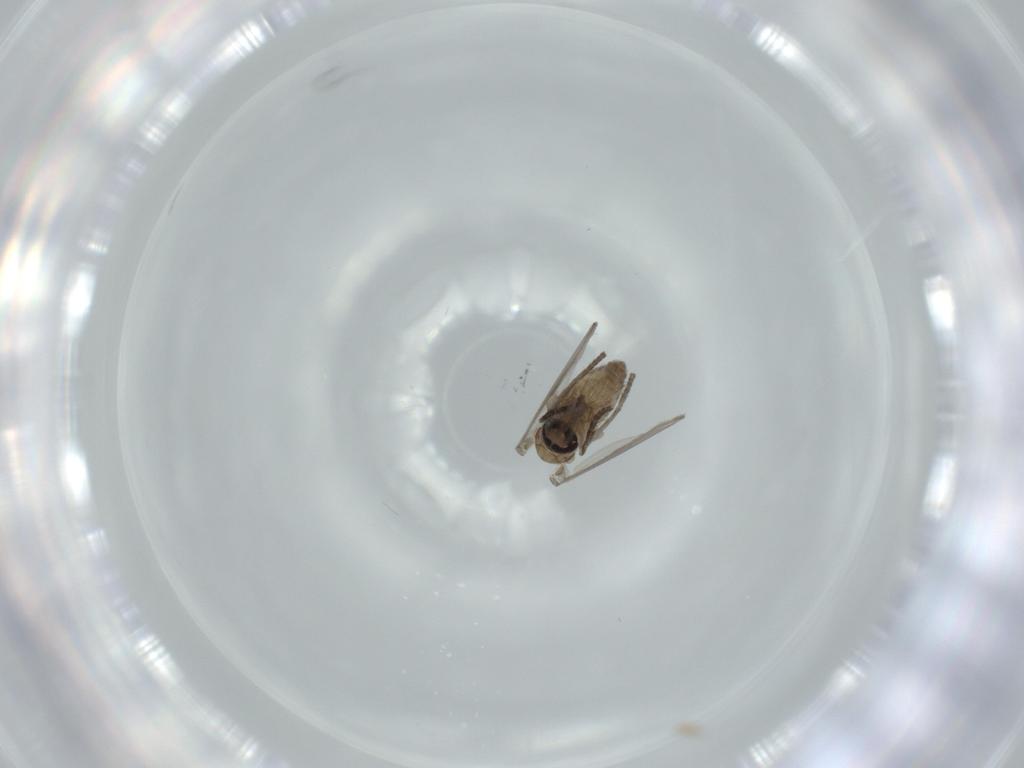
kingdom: Animalia
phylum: Arthropoda
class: Insecta
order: Diptera
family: Psychodidae
